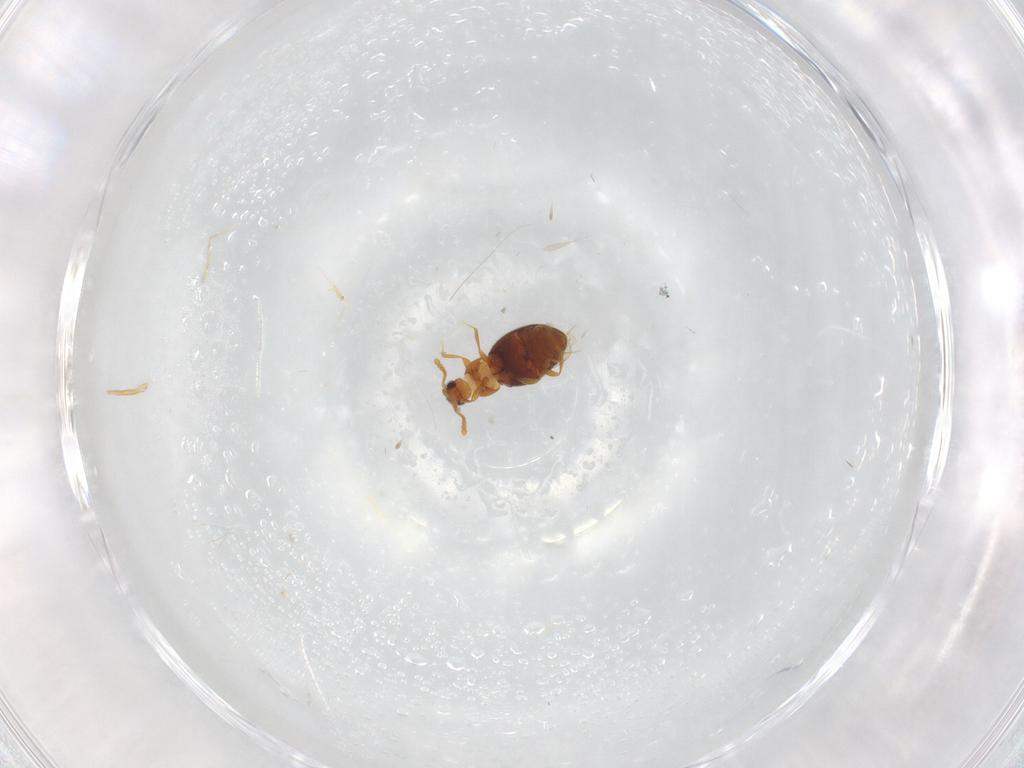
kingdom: Animalia
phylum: Arthropoda
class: Insecta
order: Coleoptera
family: Staphylinidae
